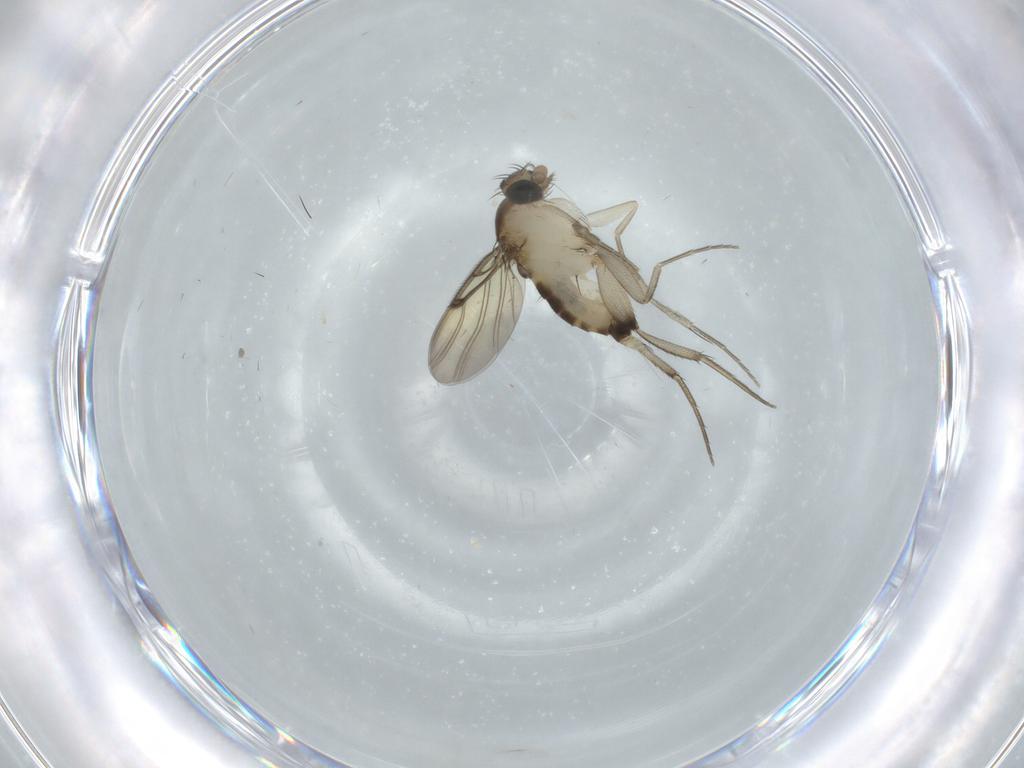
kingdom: Animalia
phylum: Arthropoda
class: Insecta
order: Diptera
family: Phoridae
